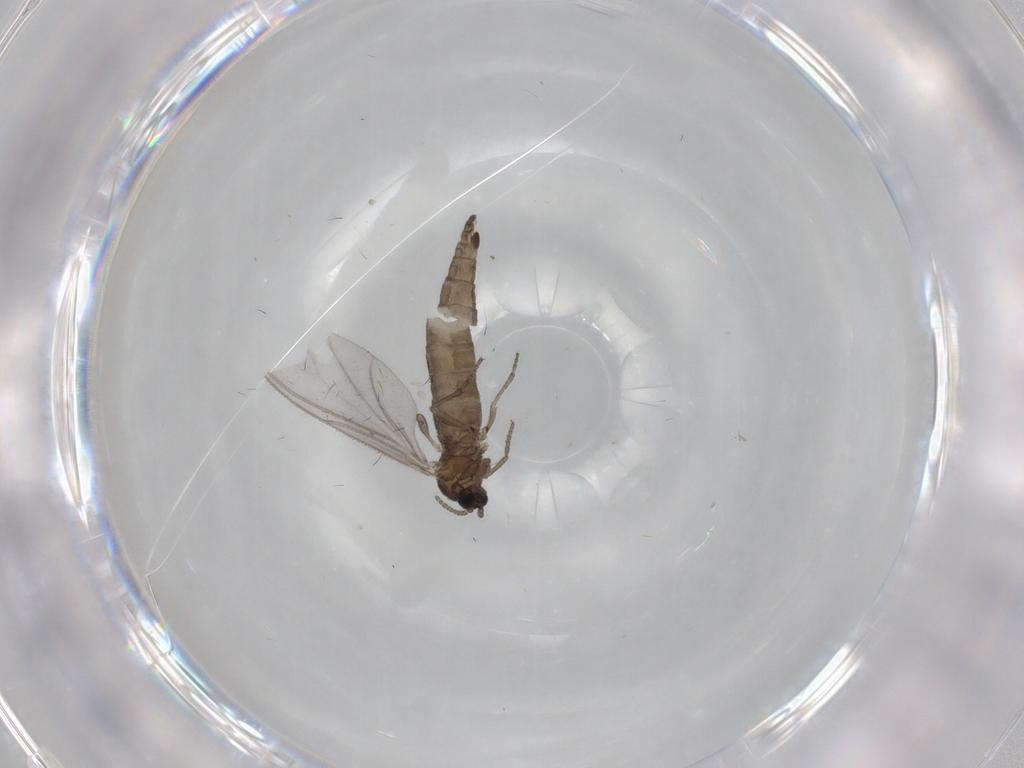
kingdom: Animalia
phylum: Arthropoda
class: Insecta
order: Diptera
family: Sciaridae
